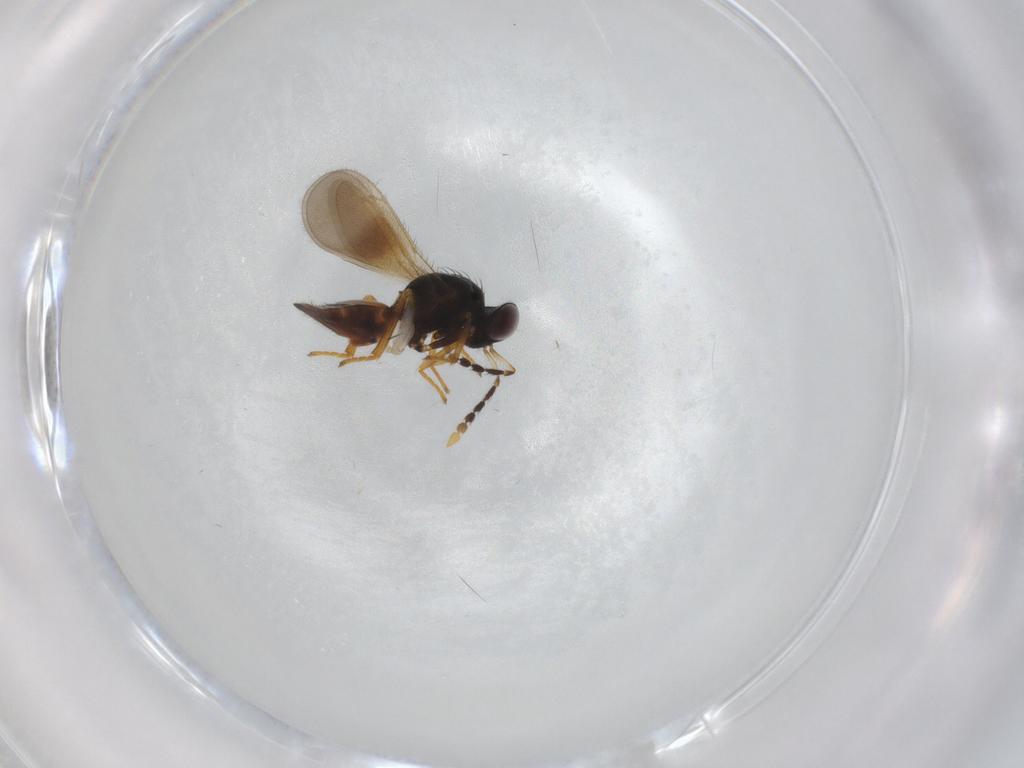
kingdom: Animalia
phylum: Arthropoda
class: Insecta
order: Hymenoptera
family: Eulophidae
